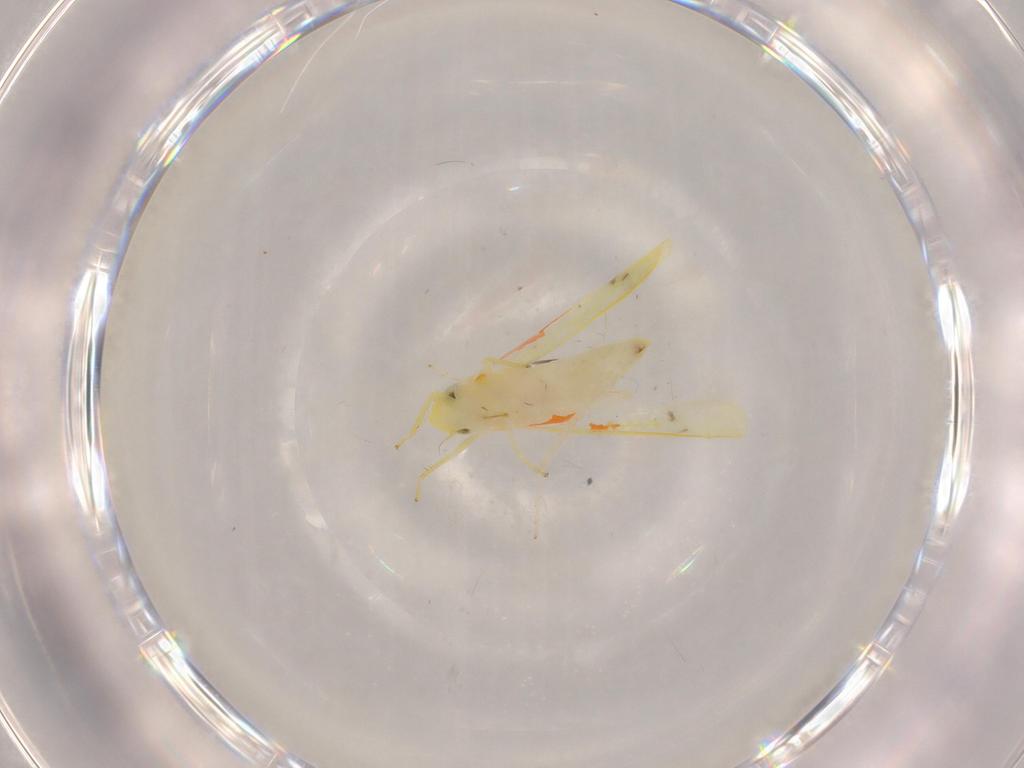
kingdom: Animalia
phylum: Arthropoda
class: Insecta
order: Hemiptera
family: Cicadellidae
